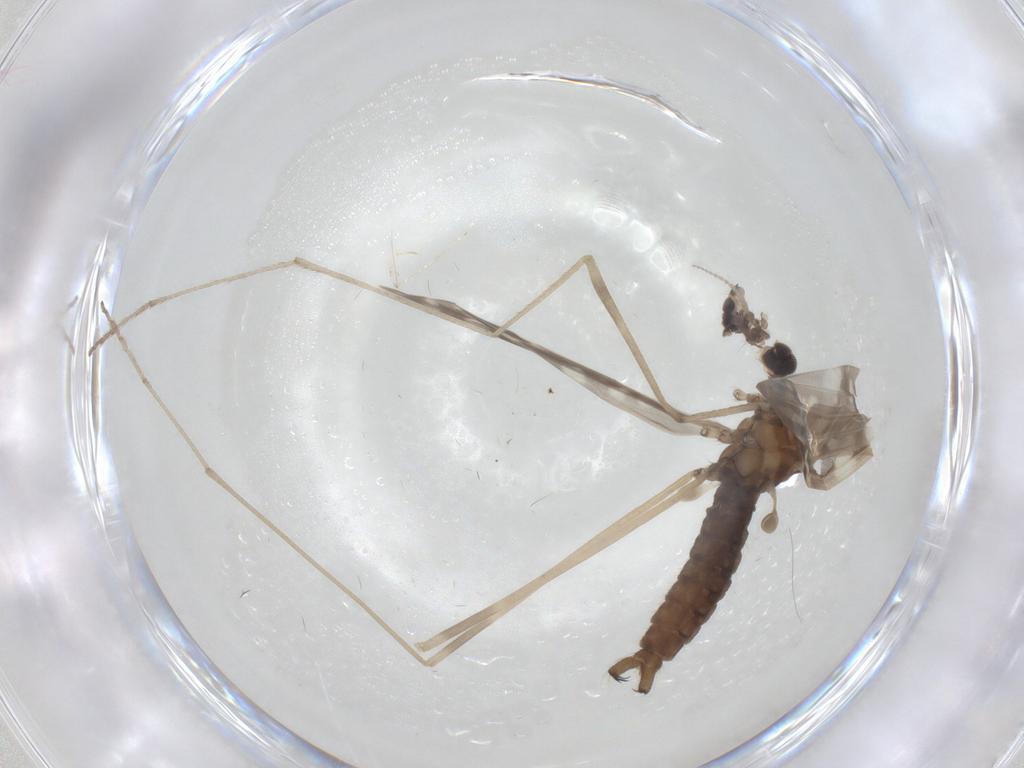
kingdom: Animalia
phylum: Arthropoda
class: Insecta
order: Diptera
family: Limoniidae
